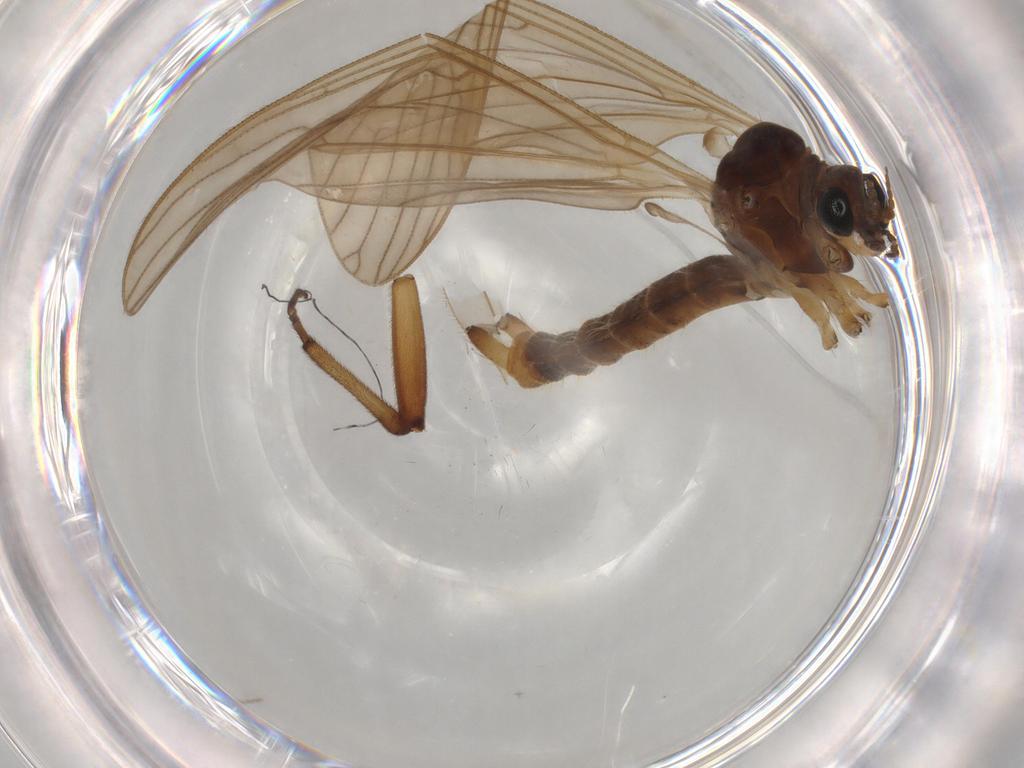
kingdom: Animalia
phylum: Arthropoda
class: Insecta
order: Diptera
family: Limoniidae
